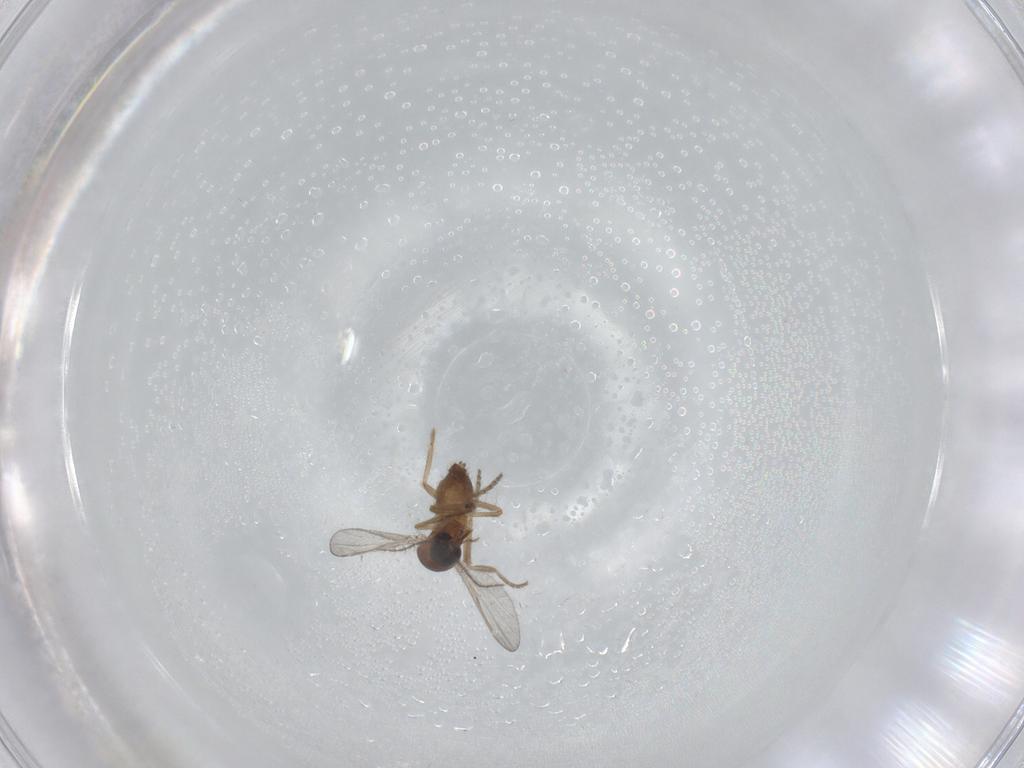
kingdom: Animalia
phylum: Arthropoda
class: Insecta
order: Diptera
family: Ceratopogonidae
